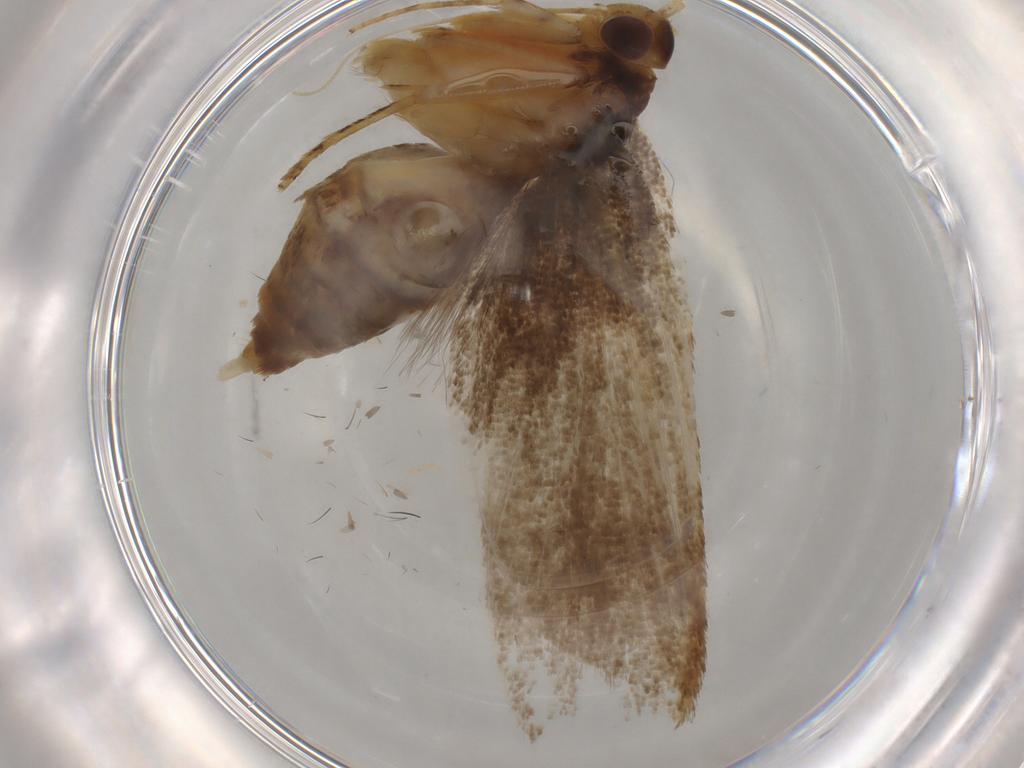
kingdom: Animalia
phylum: Arthropoda
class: Insecta
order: Lepidoptera
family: Lecithoceridae
